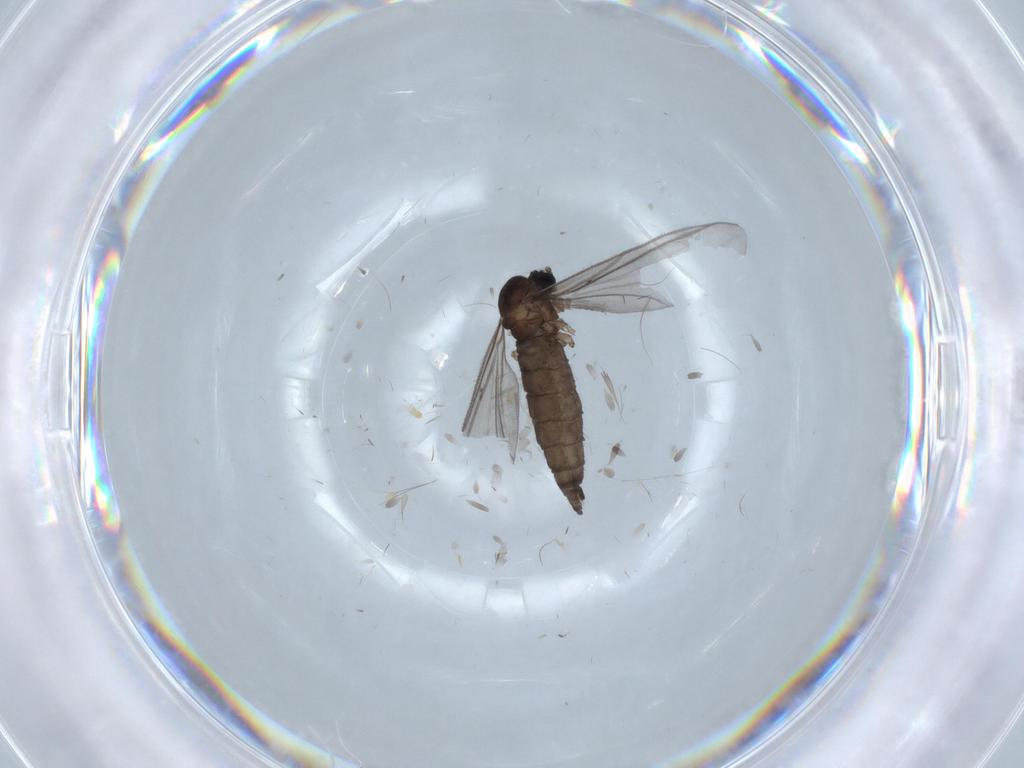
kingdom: Animalia
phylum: Arthropoda
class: Insecta
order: Diptera
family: Sciaridae
